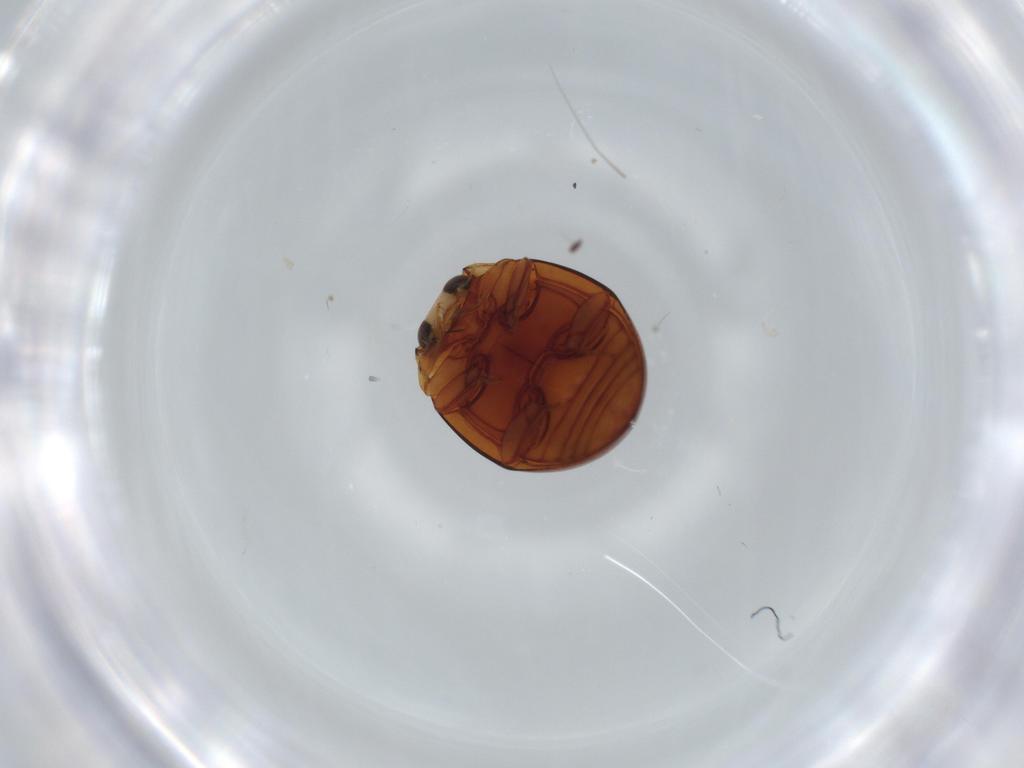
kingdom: Animalia
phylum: Arthropoda
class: Insecta
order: Coleoptera
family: Coccinellidae
